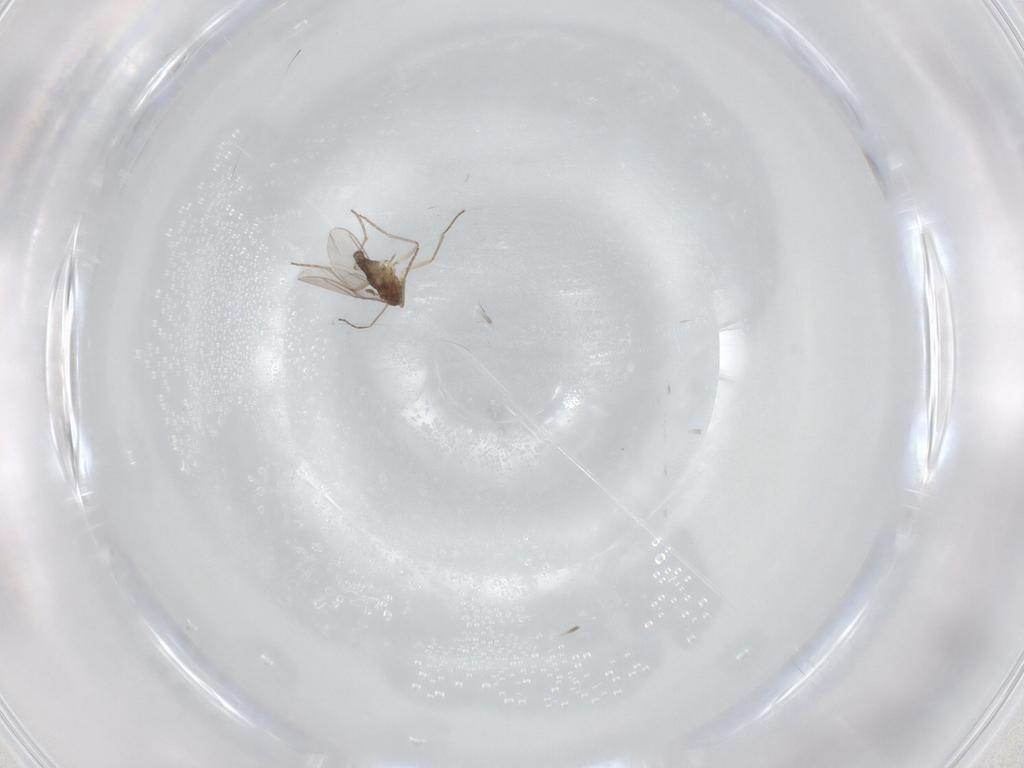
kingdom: Animalia
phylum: Arthropoda
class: Insecta
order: Diptera
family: Sciaridae
